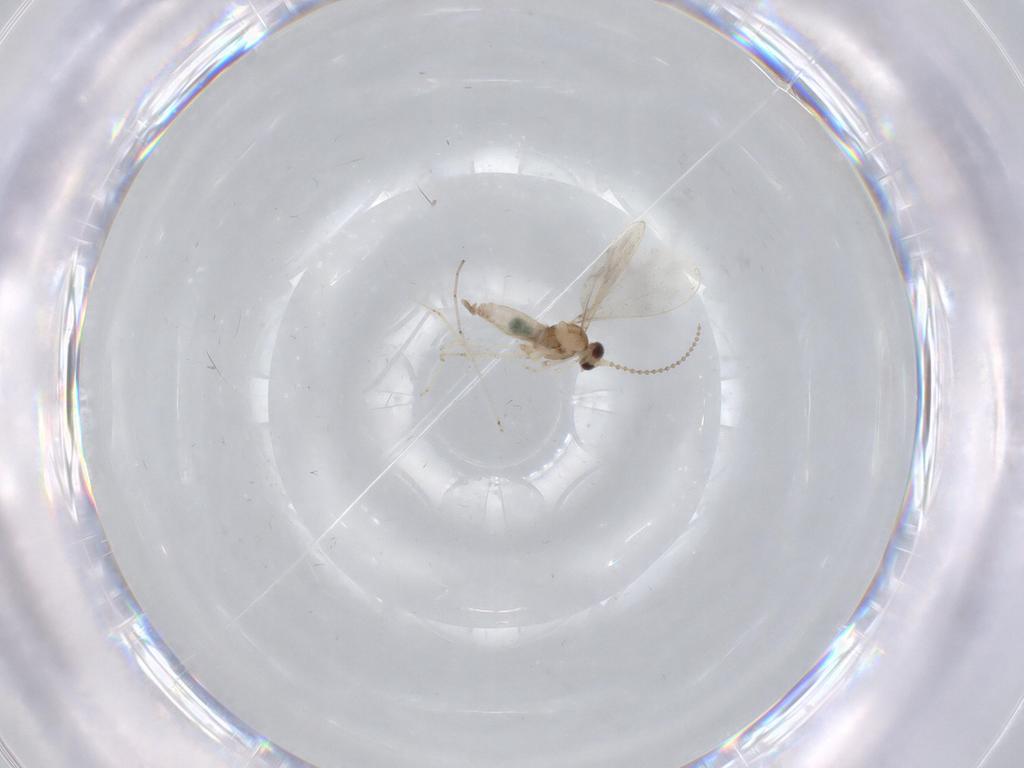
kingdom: Animalia
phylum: Arthropoda
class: Insecta
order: Diptera
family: Cecidomyiidae
